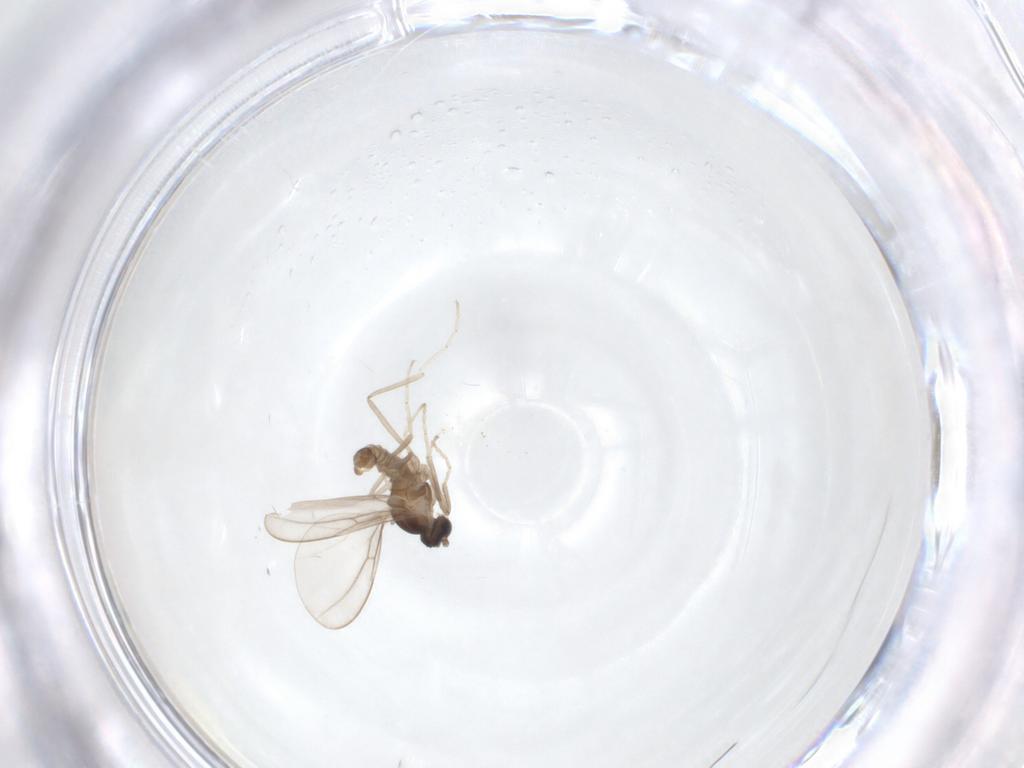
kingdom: Animalia
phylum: Arthropoda
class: Insecta
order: Diptera
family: Cecidomyiidae
